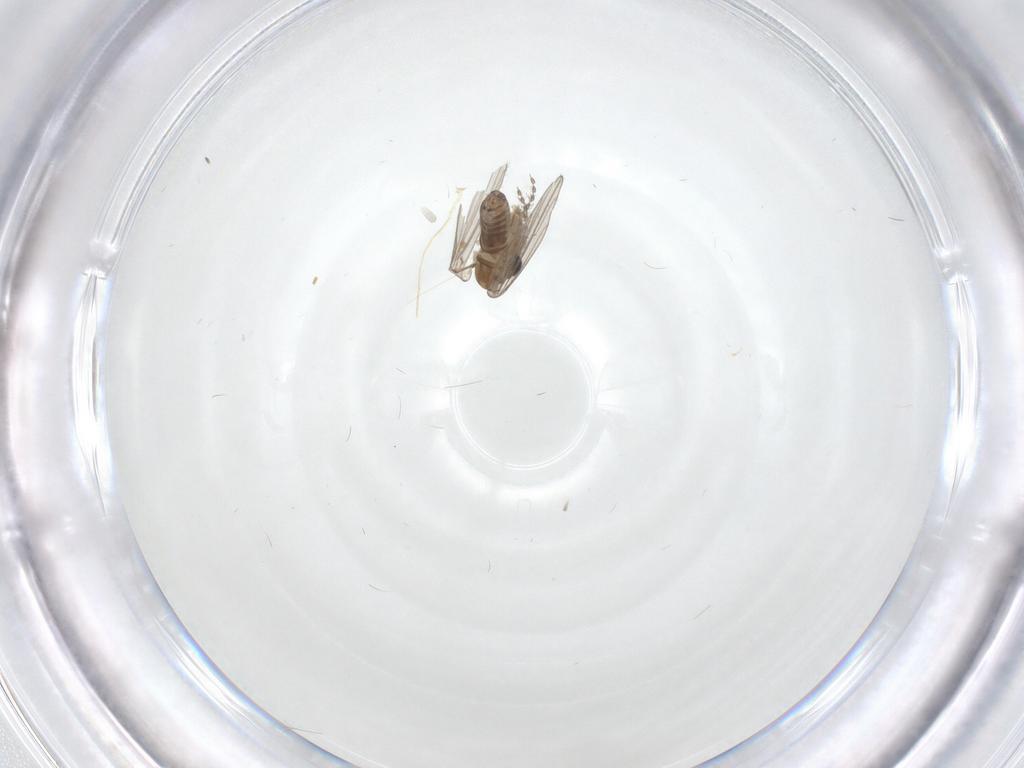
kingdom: Animalia
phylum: Arthropoda
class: Insecta
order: Diptera
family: Psychodidae
